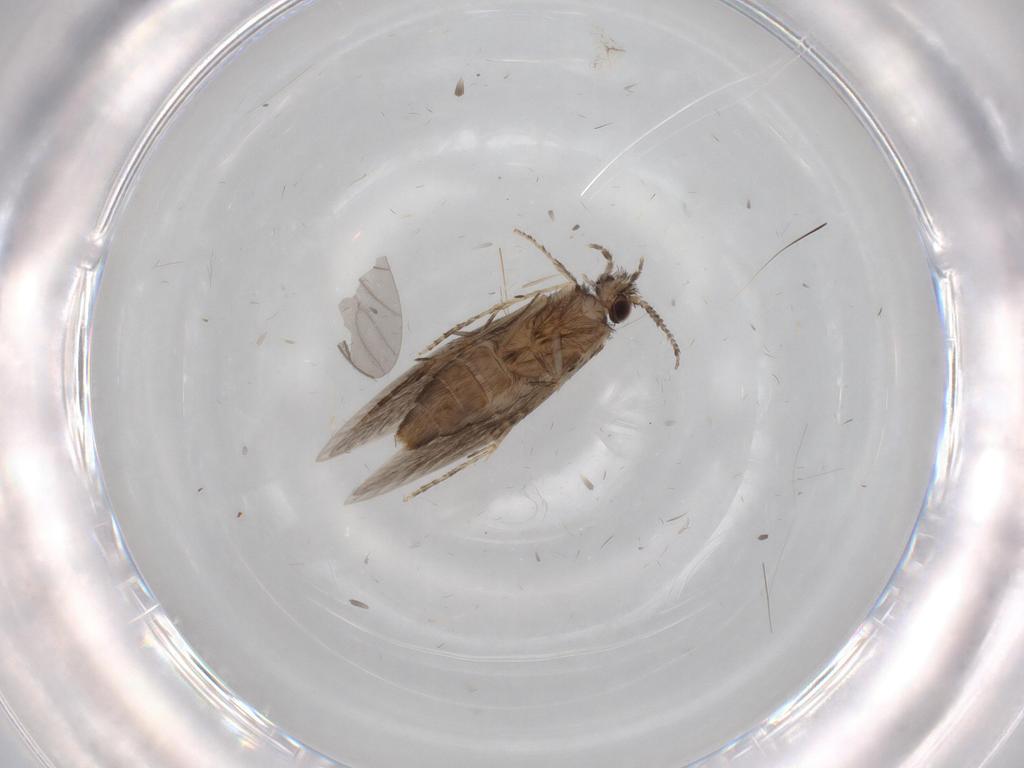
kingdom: Animalia
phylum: Arthropoda
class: Insecta
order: Trichoptera
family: Hydroptilidae
